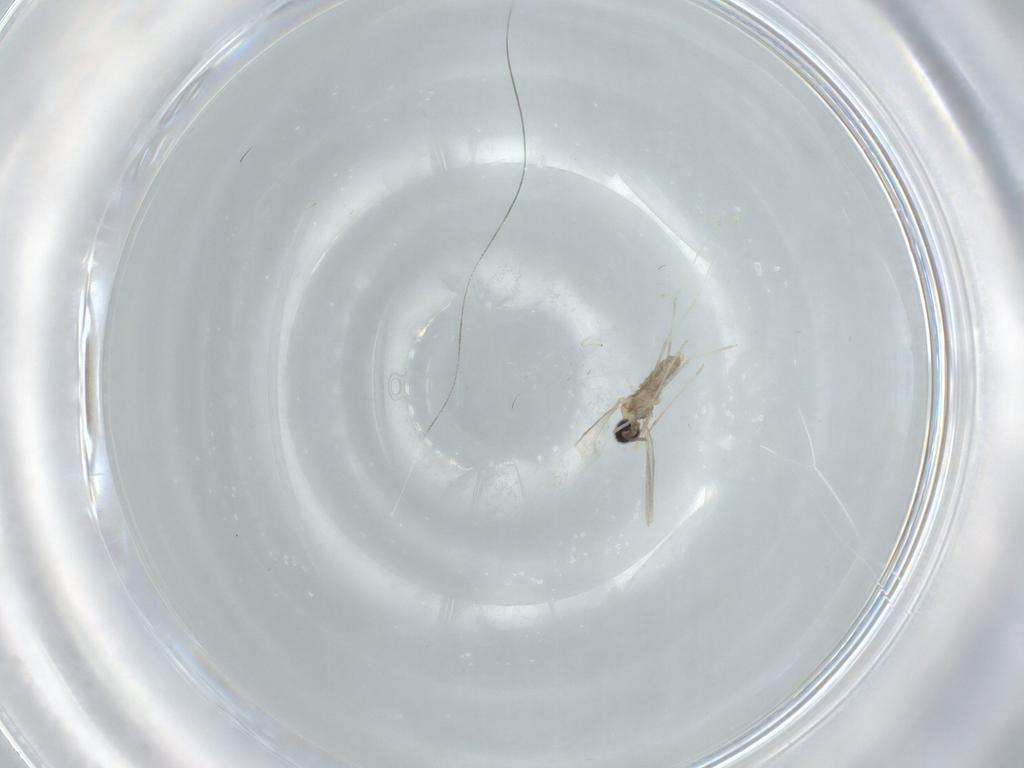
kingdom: Animalia
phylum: Arthropoda
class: Insecta
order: Diptera
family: Cecidomyiidae
